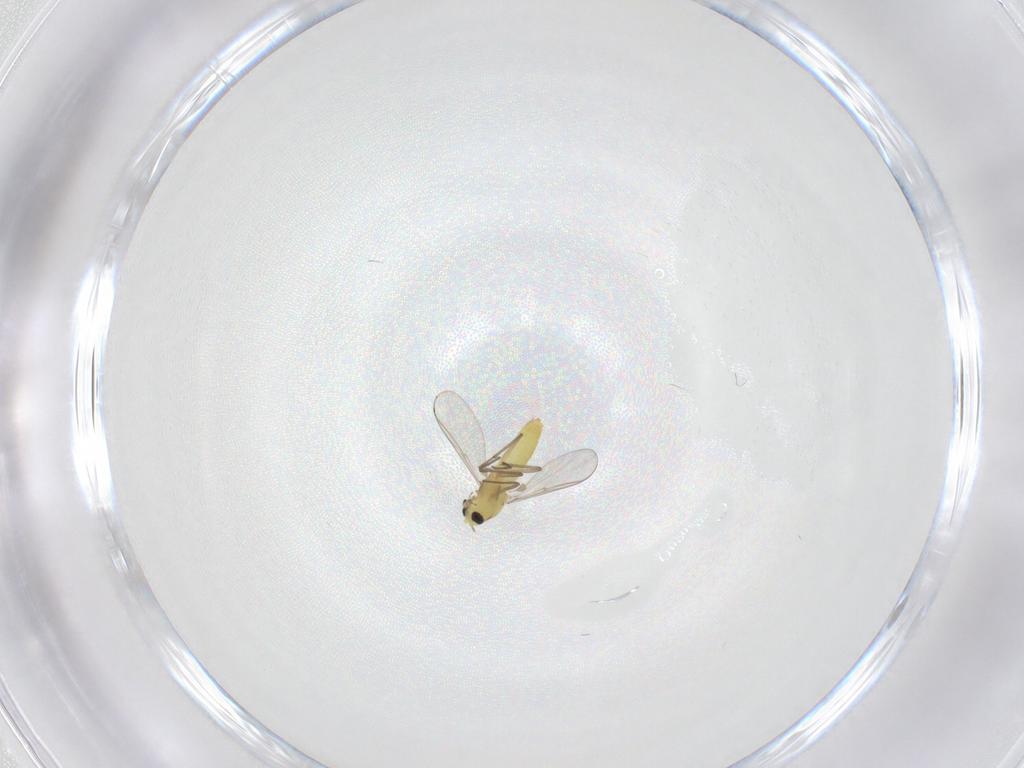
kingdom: Animalia
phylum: Arthropoda
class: Insecta
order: Diptera
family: Chironomidae
